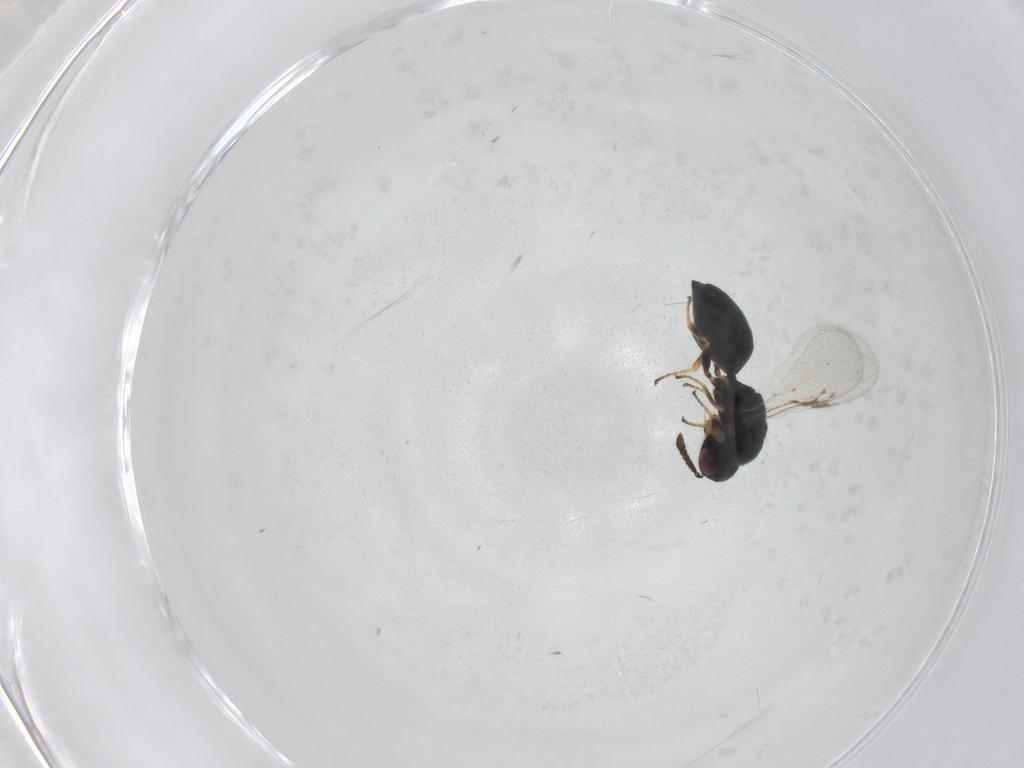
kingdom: Animalia
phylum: Arthropoda
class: Insecta
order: Hymenoptera
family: Eurytomidae
